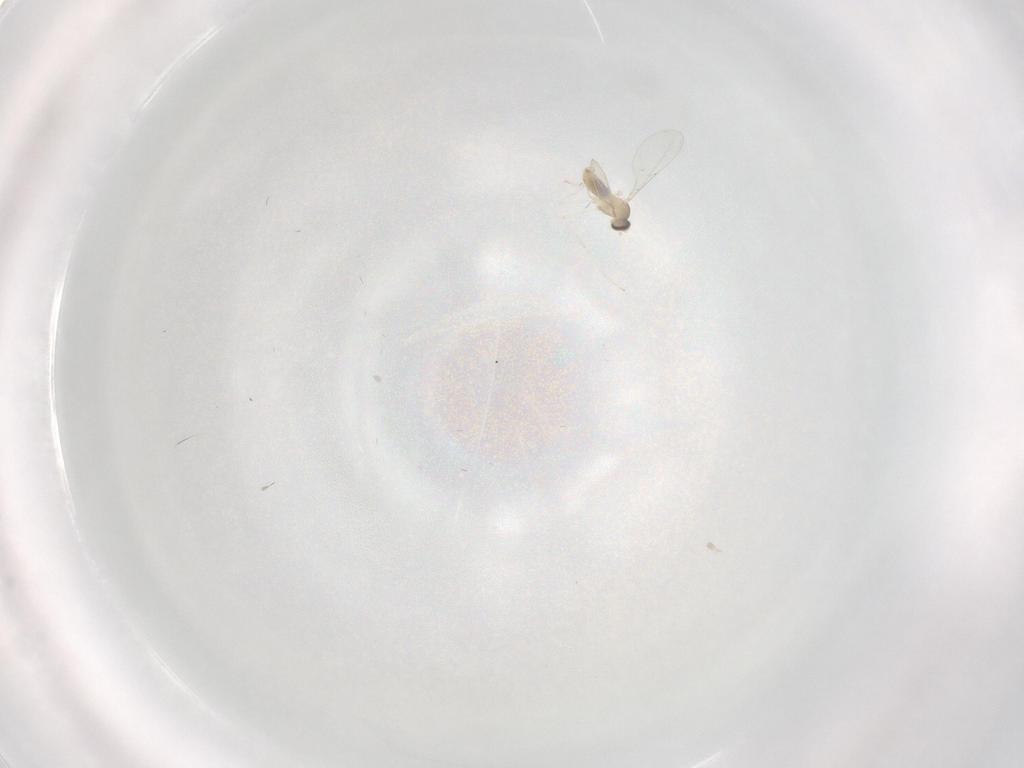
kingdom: Animalia
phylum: Arthropoda
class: Insecta
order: Diptera
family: Cecidomyiidae
